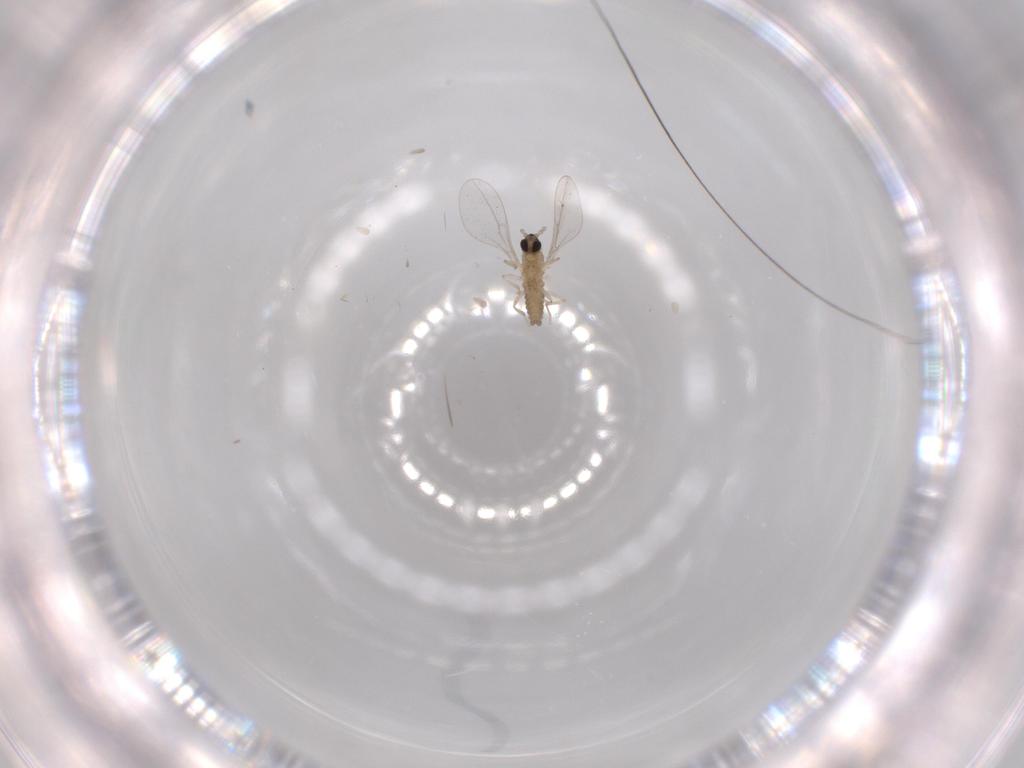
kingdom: Animalia
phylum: Arthropoda
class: Insecta
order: Diptera
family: Cecidomyiidae
